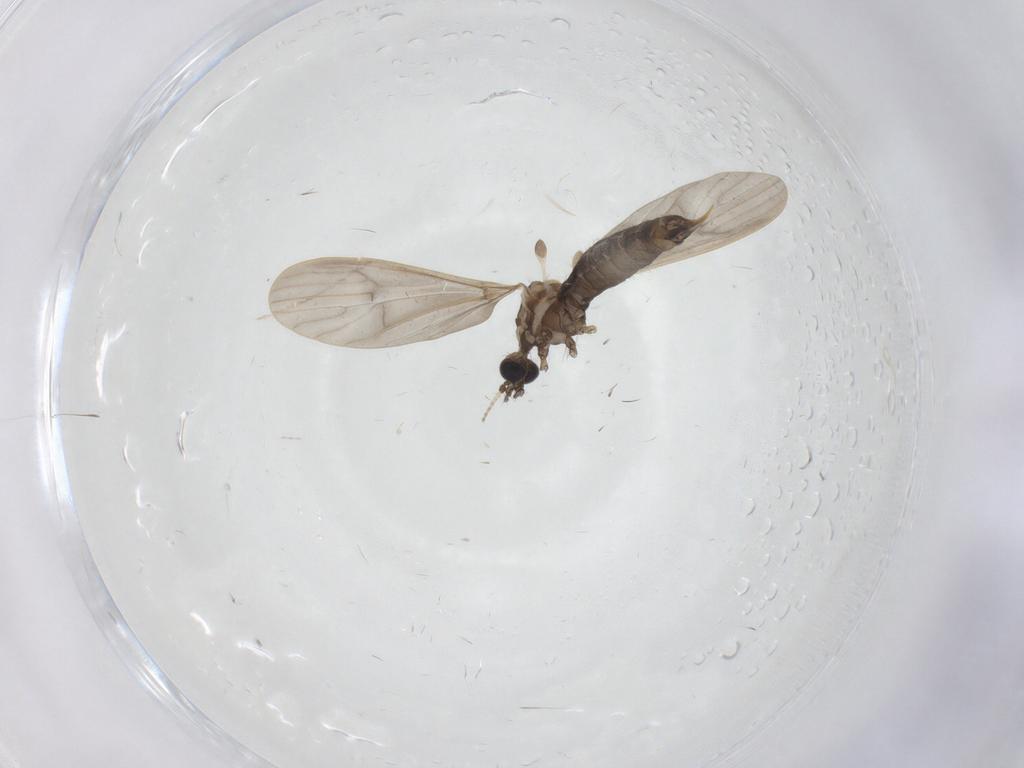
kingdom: Animalia
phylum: Arthropoda
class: Insecta
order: Diptera
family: Limoniidae
